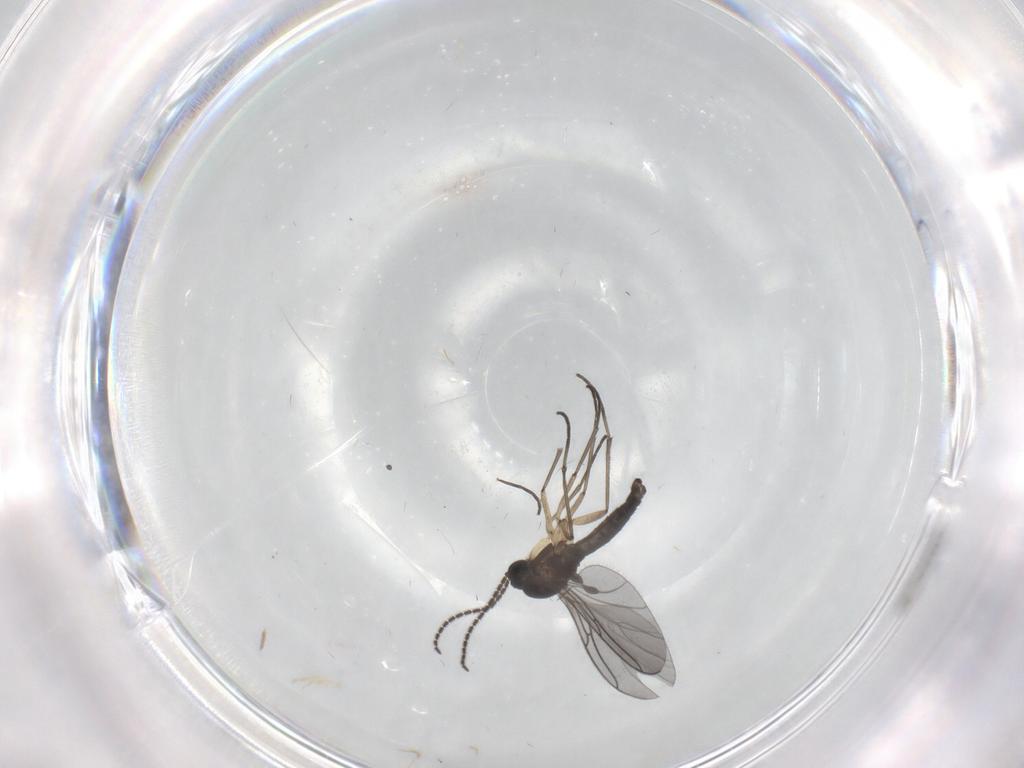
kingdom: Animalia
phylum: Arthropoda
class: Insecta
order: Diptera
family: Sciaridae
